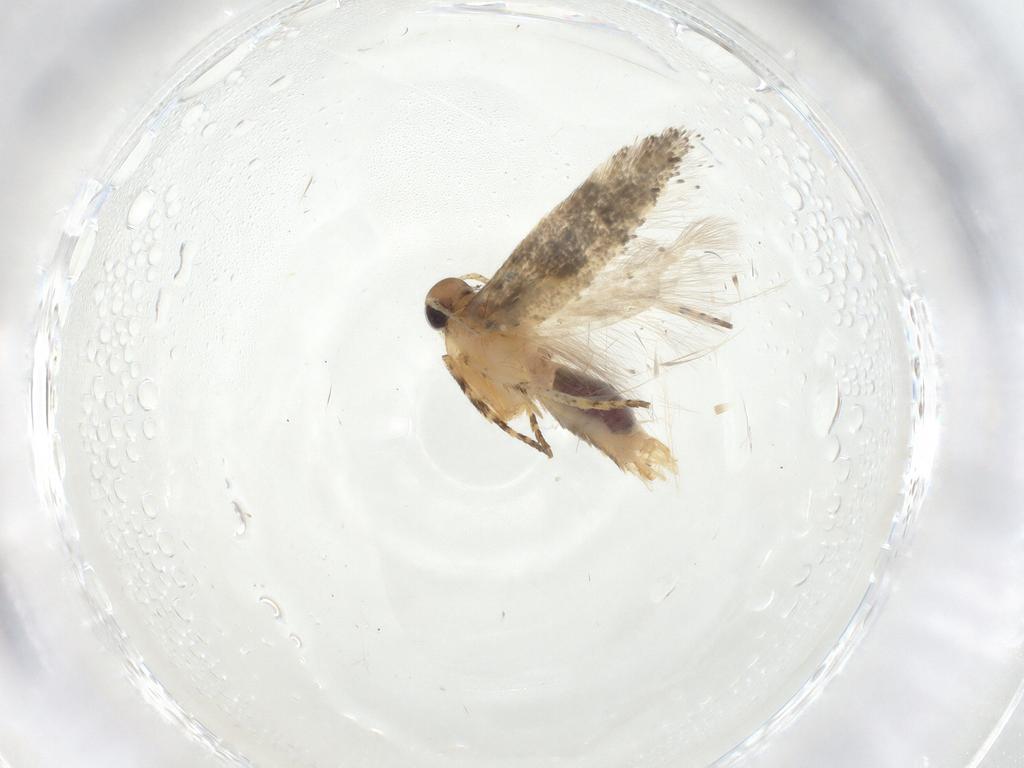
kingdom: Animalia
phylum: Arthropoda
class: Insecta
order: Lepidoptera
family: Gelechiidae
